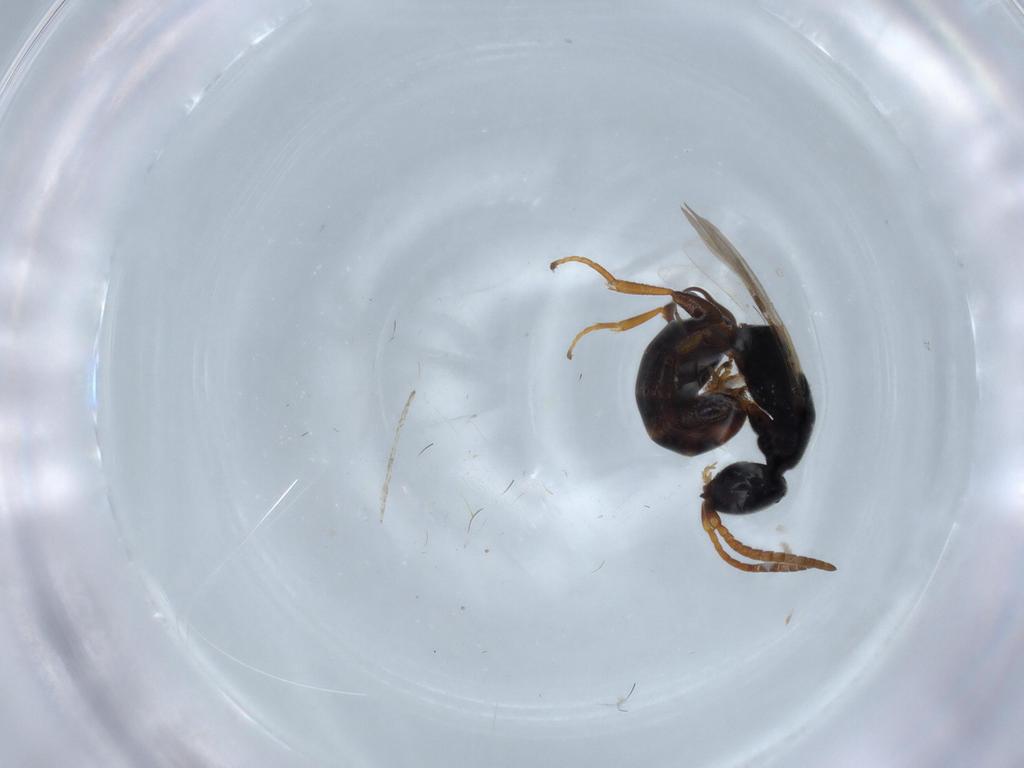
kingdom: Animalia
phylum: Arthropoda
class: Insecta
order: Hymenoptera
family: Bethylidae
